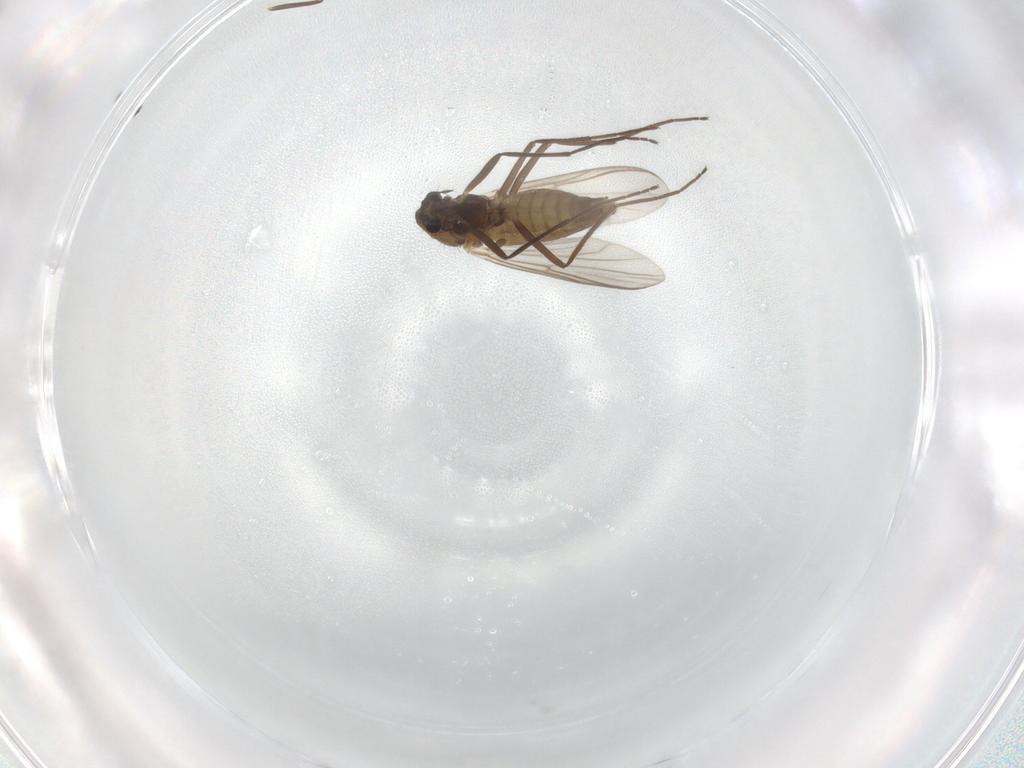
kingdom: Animalia
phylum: Arthropoda
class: Insecta
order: Diptera
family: Chironomidae
